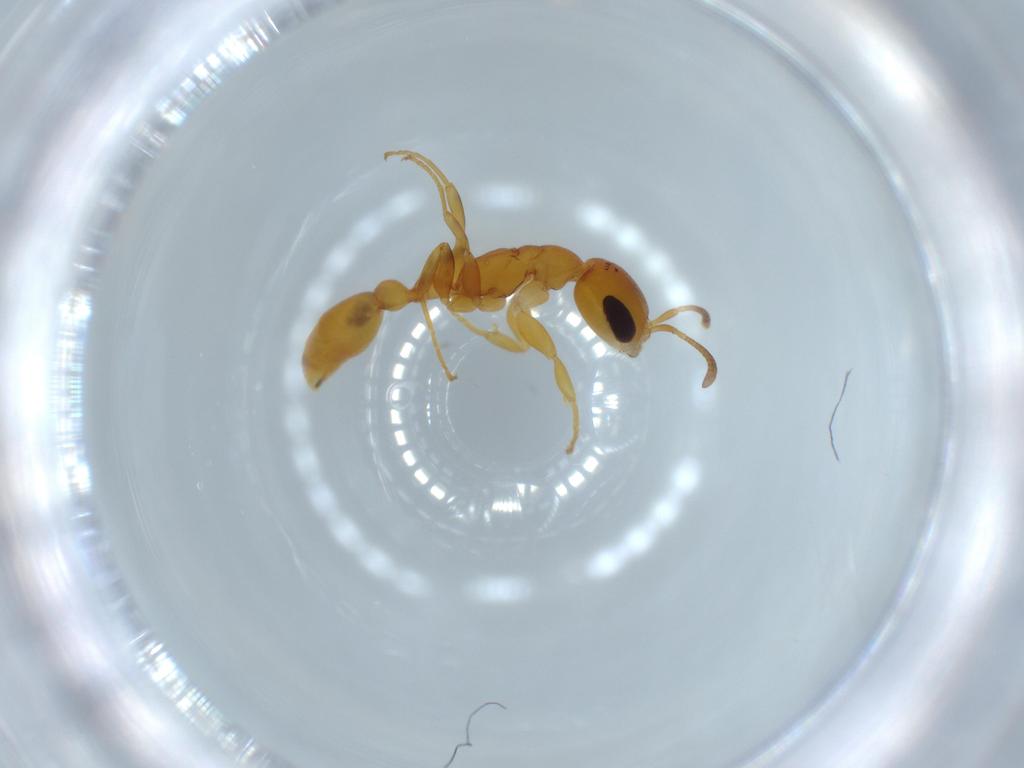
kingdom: Animalia
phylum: Arthropoda
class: Insecta
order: Hymenoptera
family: Formicidae
